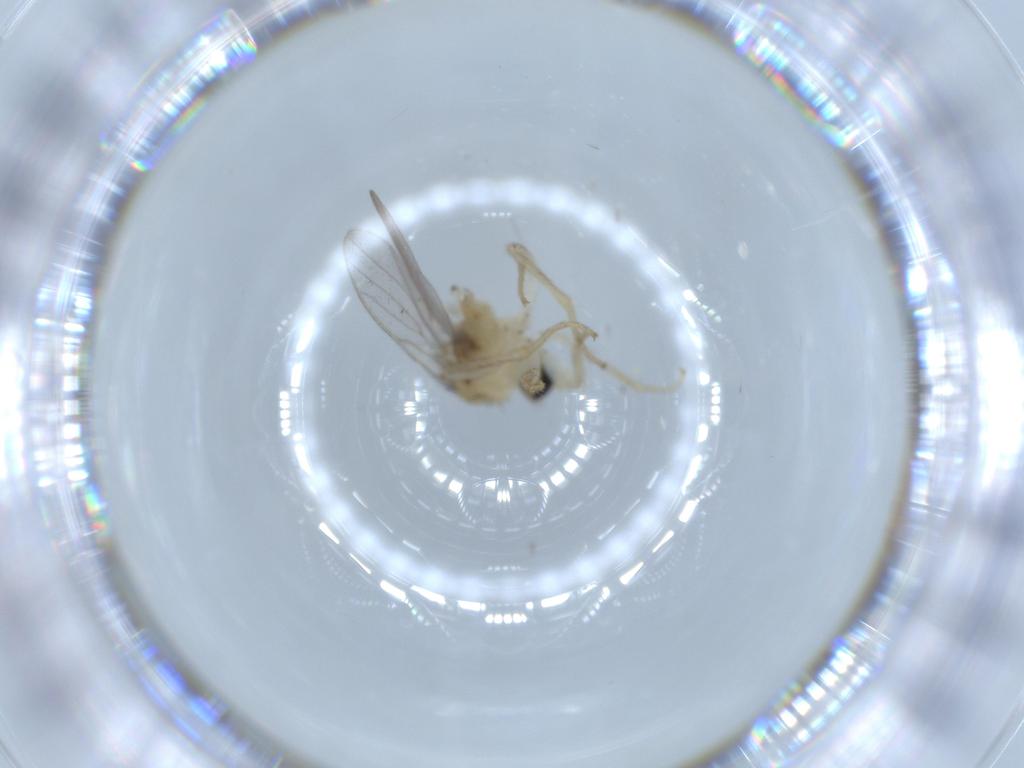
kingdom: Animalia
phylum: Arthropoda
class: Insecta
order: Diptera
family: Hybotidae
